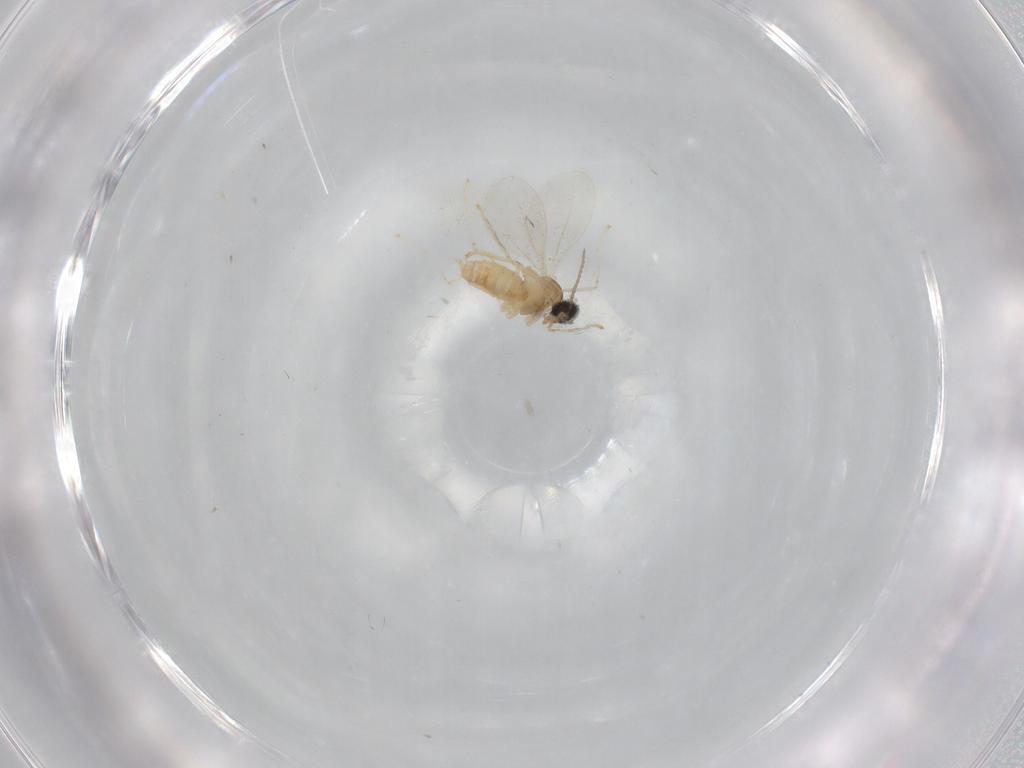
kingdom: Animalia
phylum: Arthropoda
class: Insecta
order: Diptera
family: Cecidomyiidae
